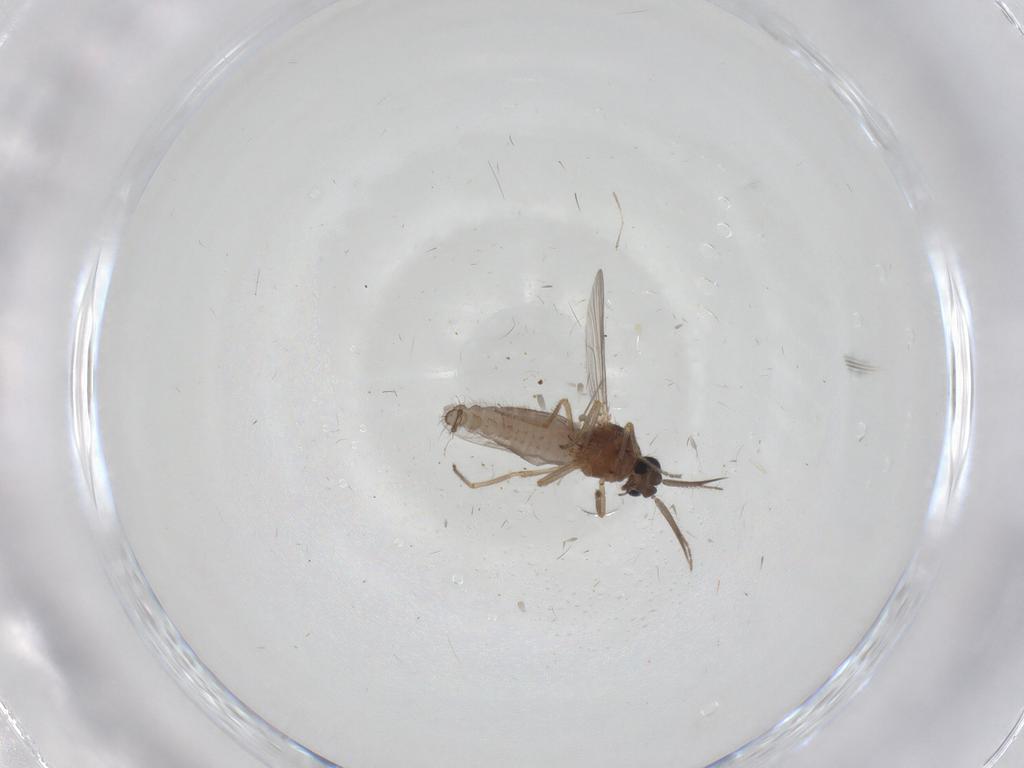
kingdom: Animalia
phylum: Arthropoda
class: Insecta
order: Diptera
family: Ceratopogonidae
